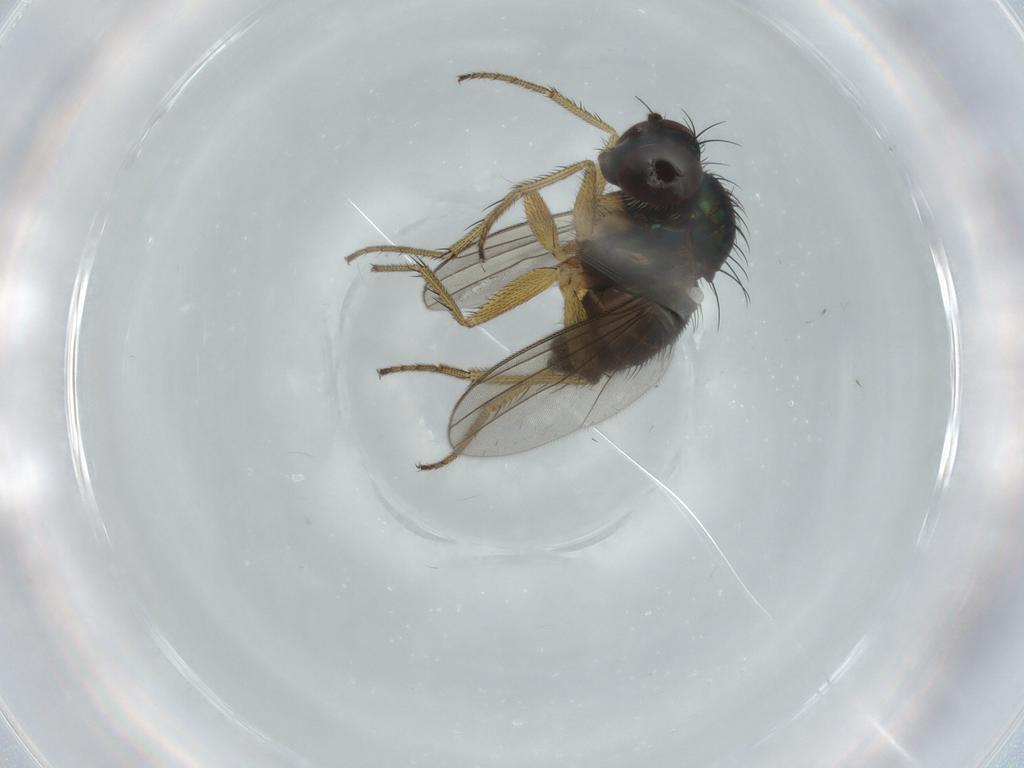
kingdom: Animalia
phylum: Arthropoda
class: Insecta
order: Diptera
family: Dolichopodidae
